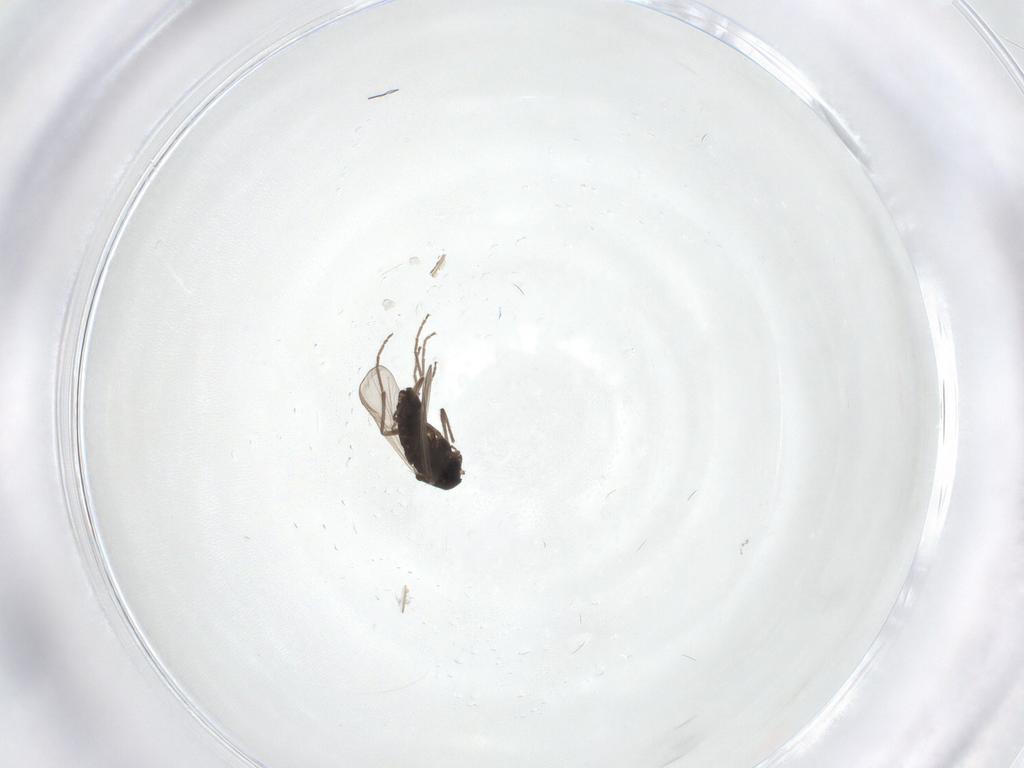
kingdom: Animalia
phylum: Arthropoda
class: Insecta
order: Diptera
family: Chironomidae
